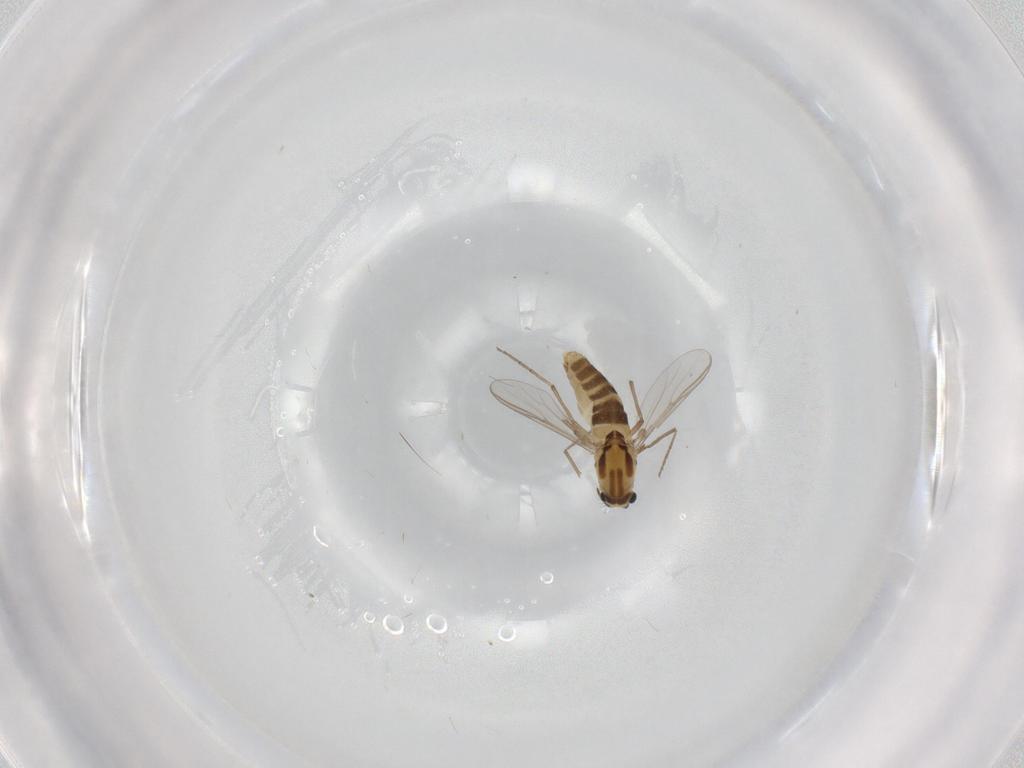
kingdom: Animalia
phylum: Arthropoda
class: Insecta
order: Diptera
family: Chironomidae
